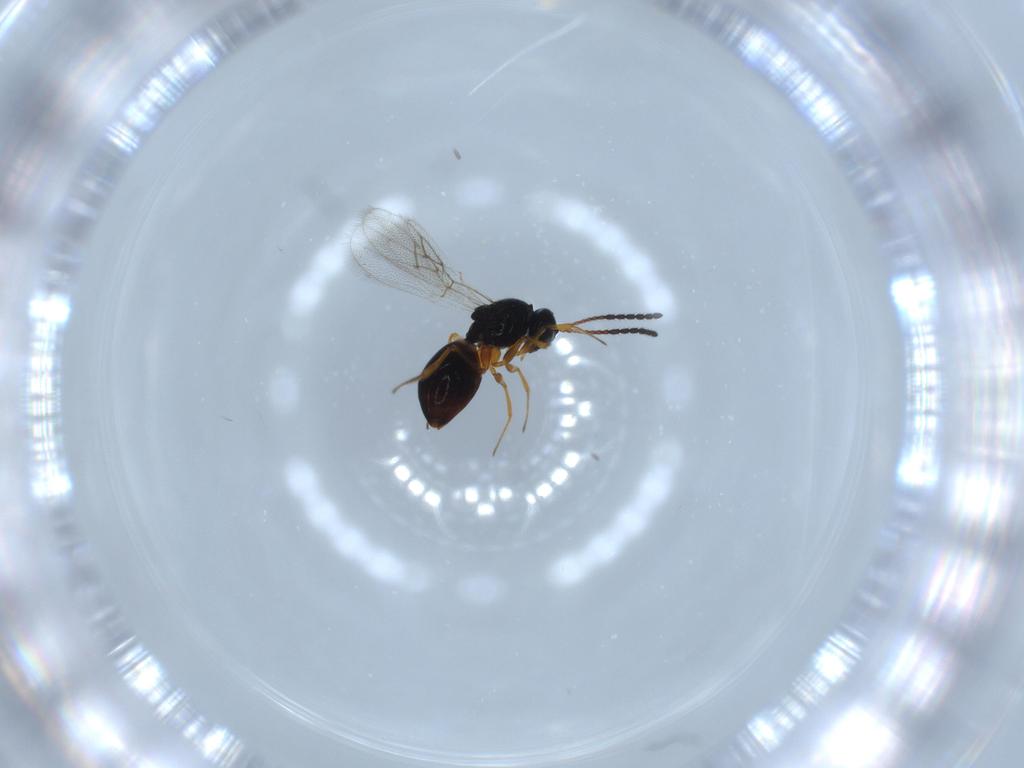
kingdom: Animalia
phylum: Arthropoda
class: Insecta
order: Hymenoptera
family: Figitidae
